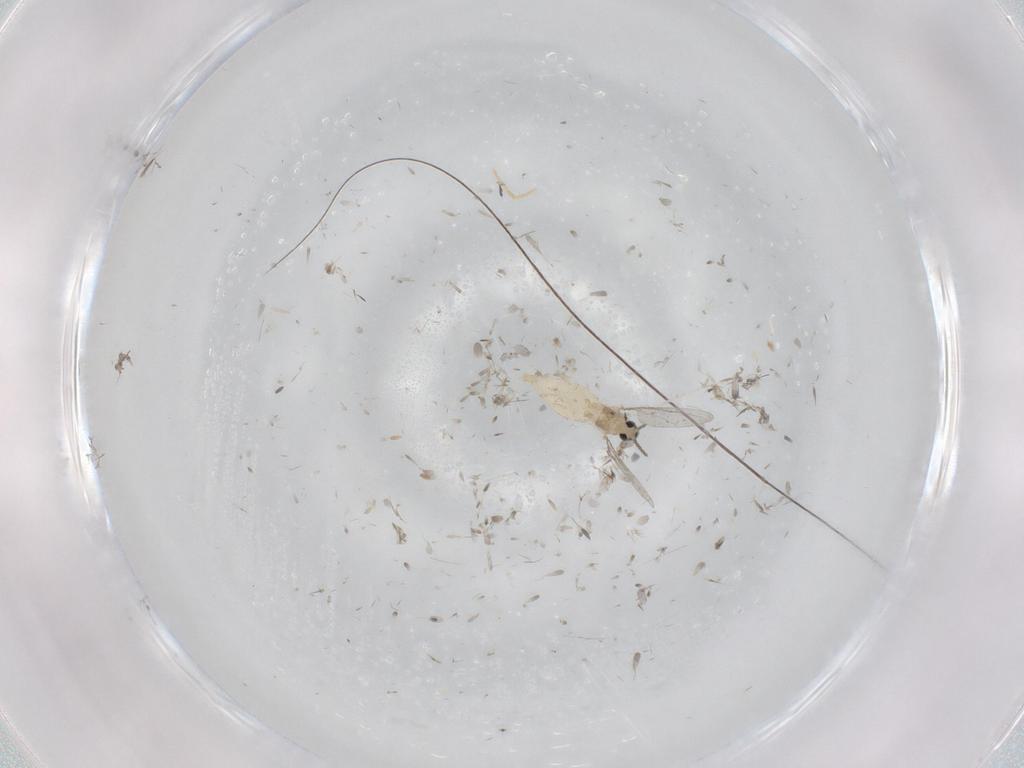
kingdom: Animalia
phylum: Arthropoda
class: Insecta
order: Diptera
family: Cecidomyiidae
